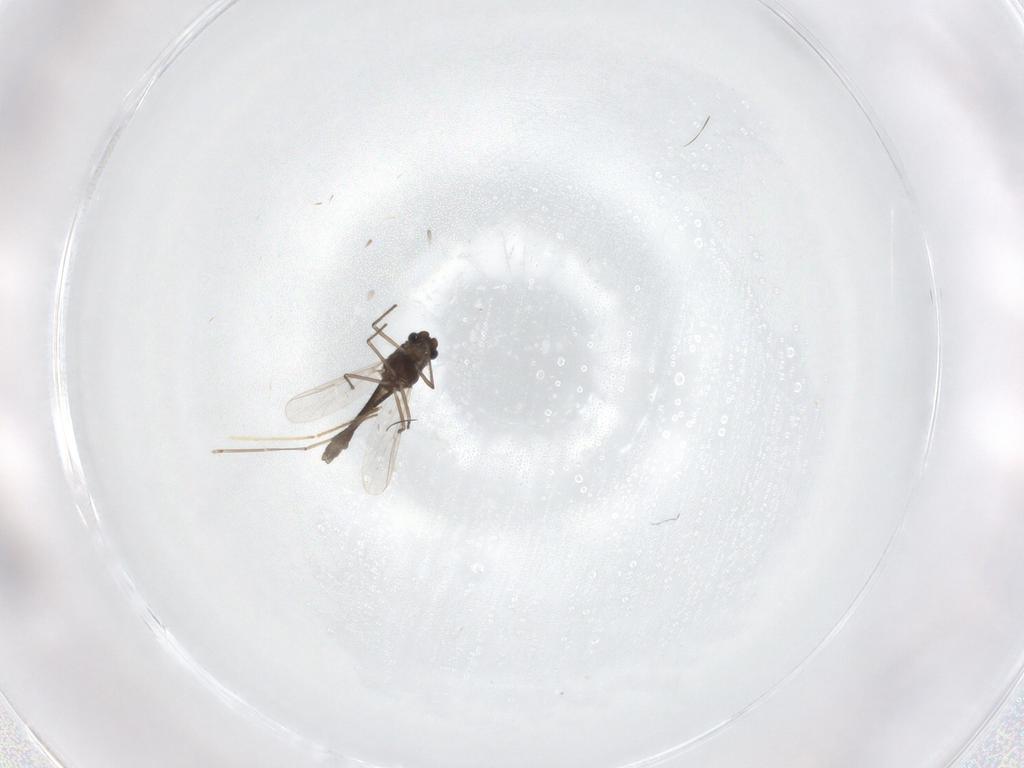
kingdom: Animalia
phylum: Arthropoda
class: Insecta
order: Diptera
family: Chironomidae
